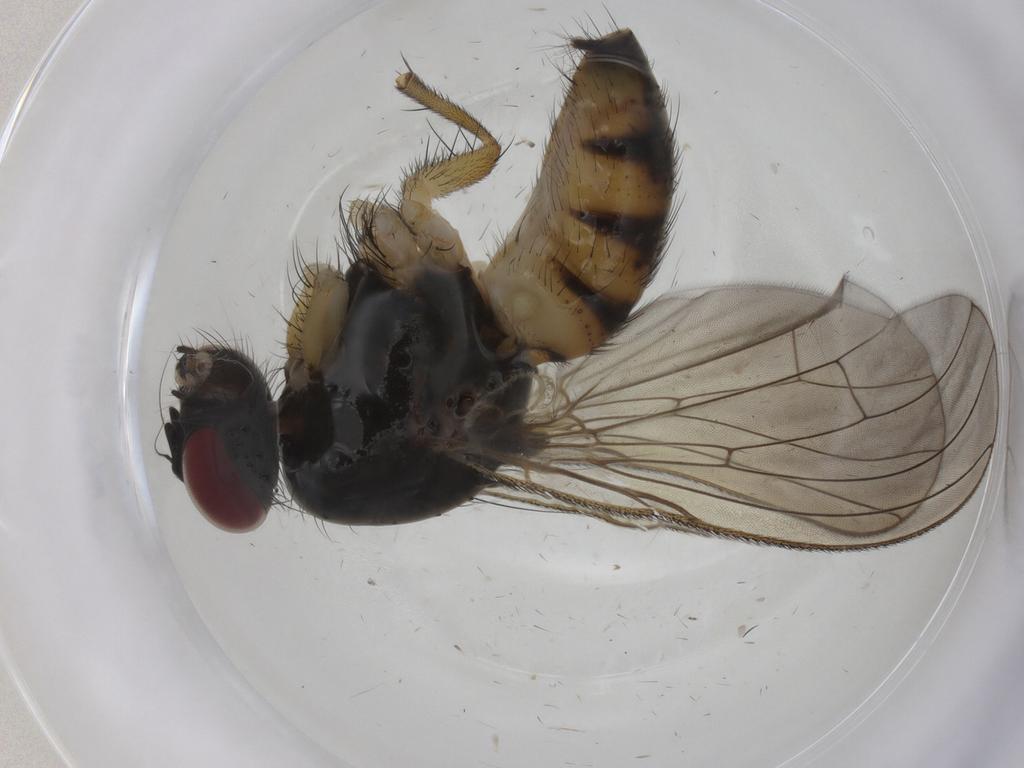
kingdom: Animalia
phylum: Arthropoda
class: Insecta
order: Diptera
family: Muscidae
